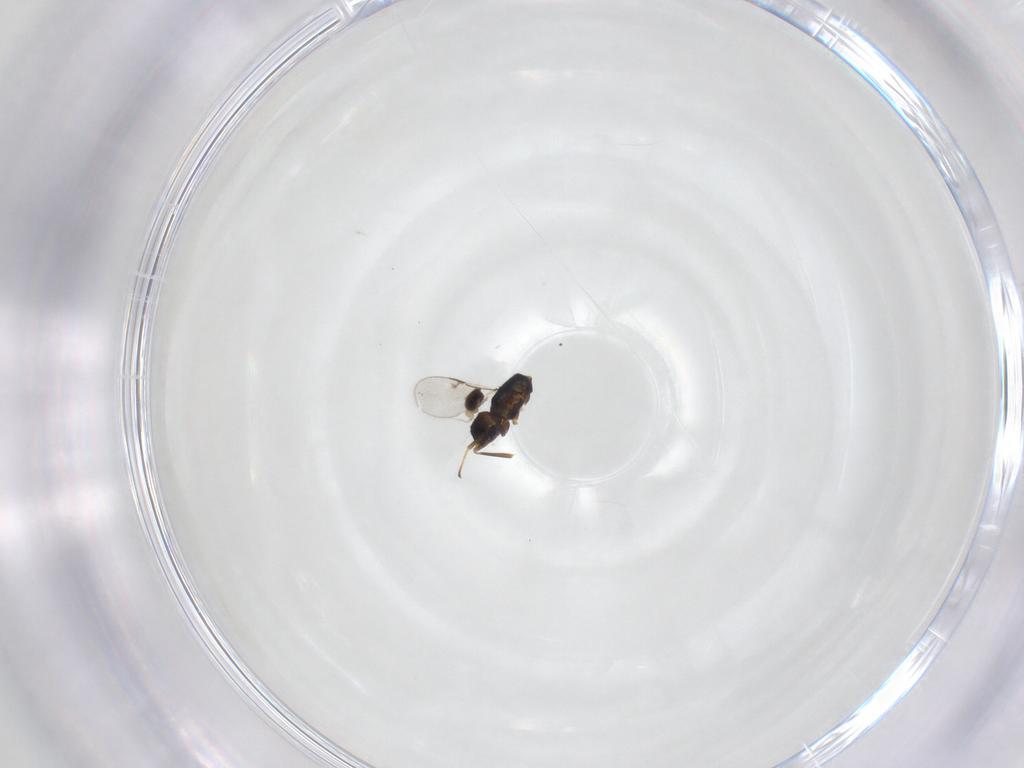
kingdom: Animalia
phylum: Arthropoda
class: Insecta
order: Hymenoptera
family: Encyrtidae
